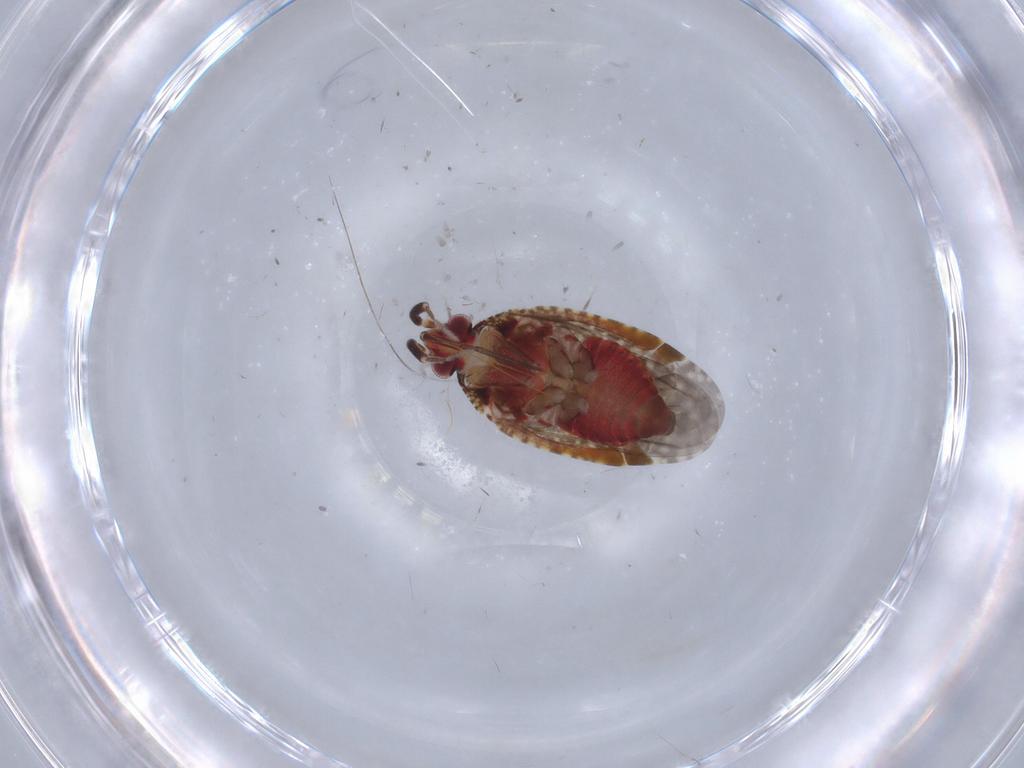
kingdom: Animalia
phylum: Arthropoda
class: Insecta
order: Hemiptera
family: Miridae
